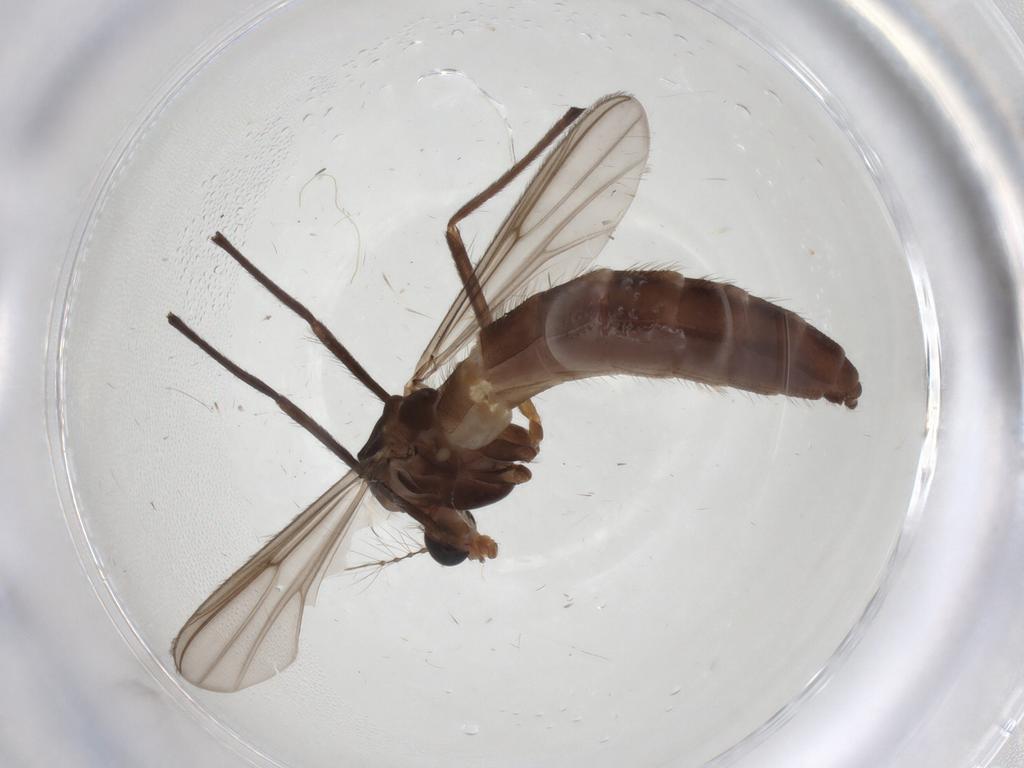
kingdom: Animalia
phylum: Arthropoda
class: Insecta
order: Diptera
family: Chironomidae
